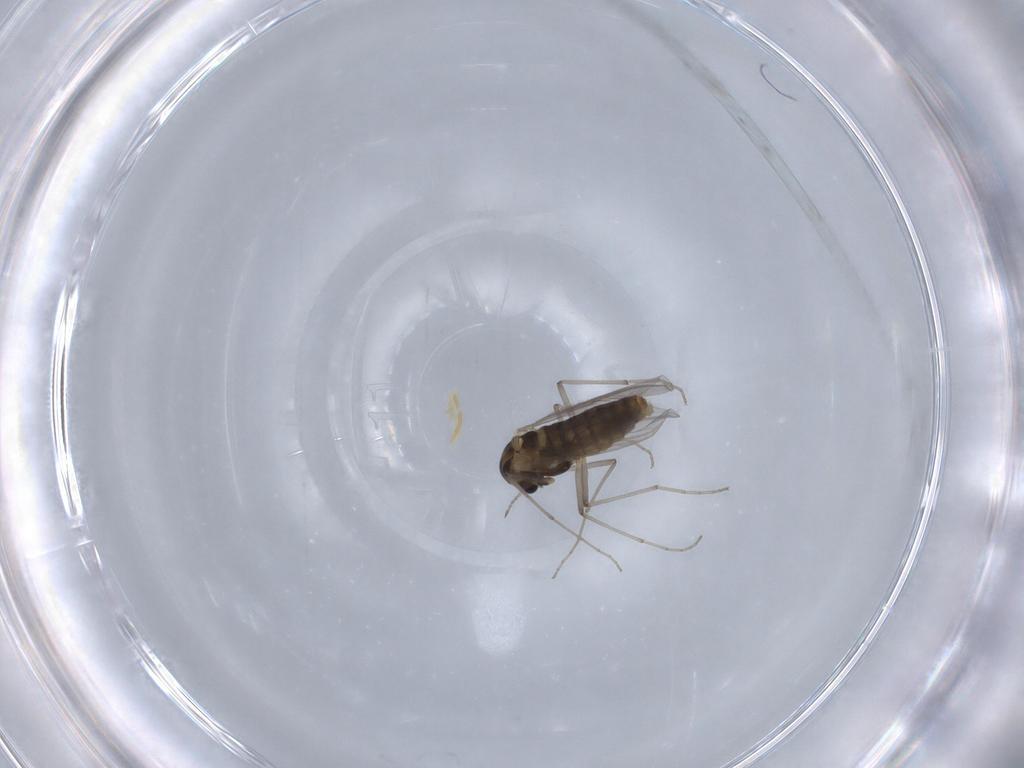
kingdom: Animalia
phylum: Arthropoda
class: Insecta
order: Diptera
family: Chironomidae
